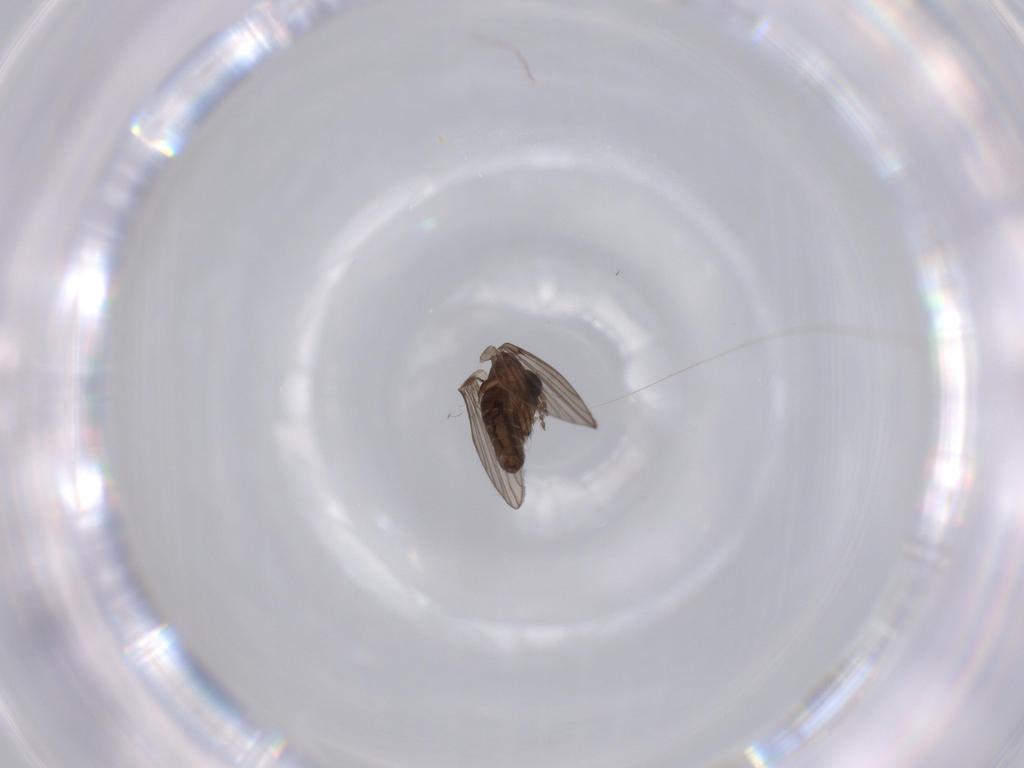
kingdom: Animalia
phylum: Arthropoda
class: Insecta
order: Diptera
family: Psychodidae
